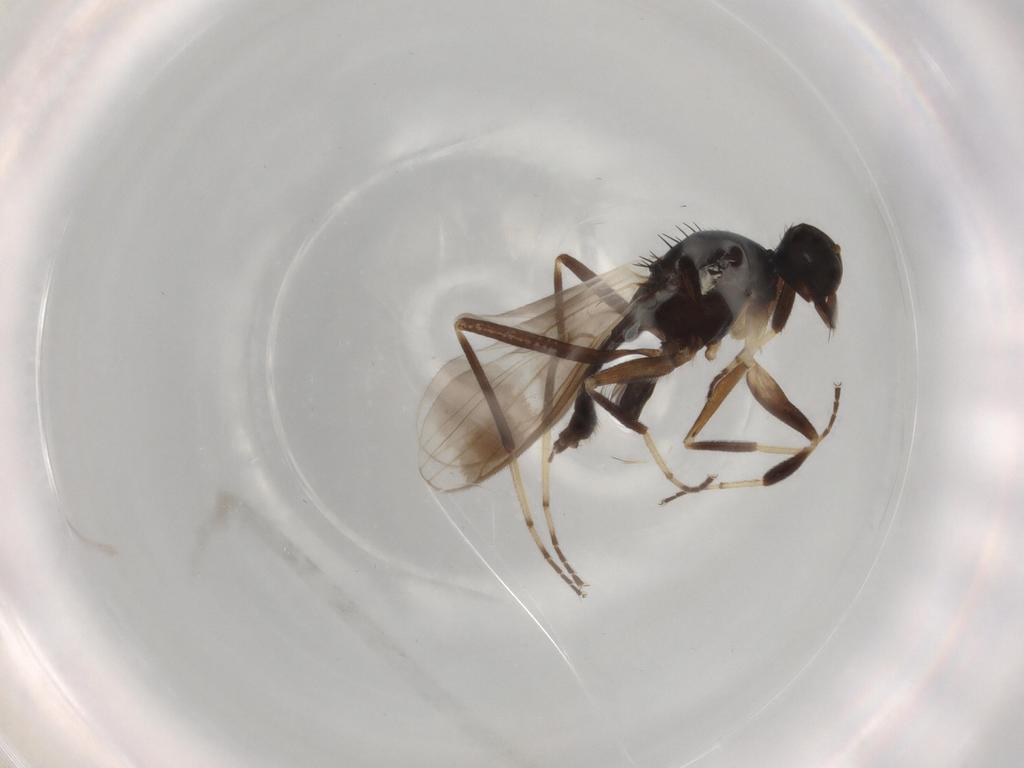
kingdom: Animalia
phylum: Arthropoda
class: Insecta
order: Diptera
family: Hybotidae
